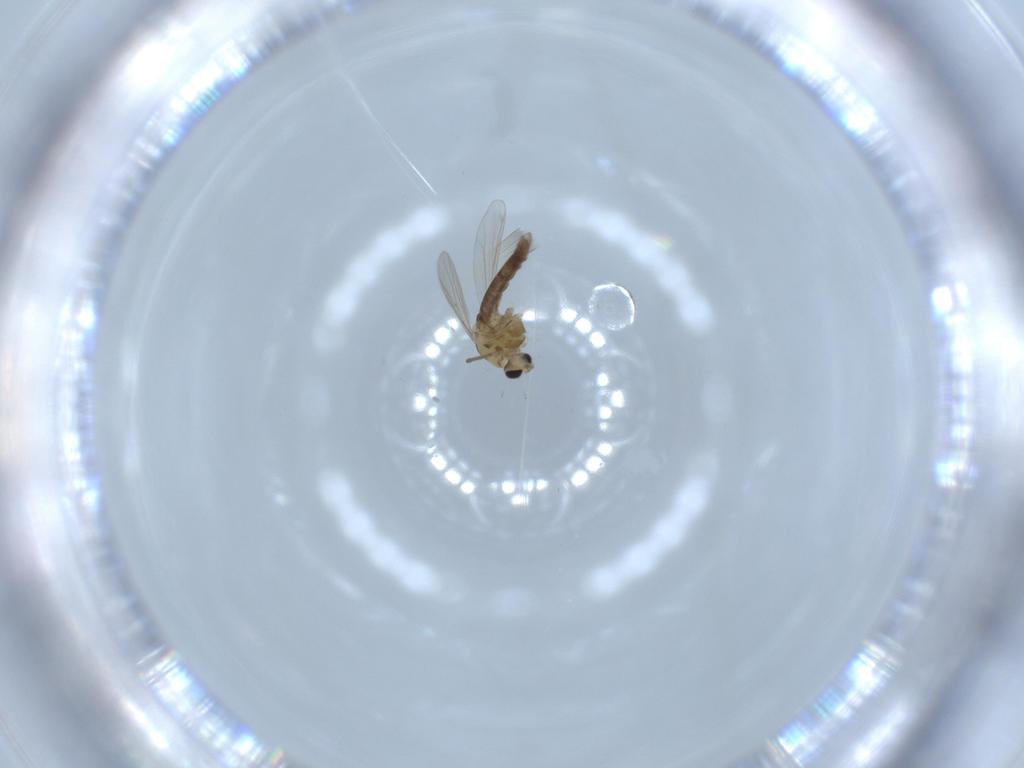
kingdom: Animalia
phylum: Arthropoda
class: Insecta
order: Diptera
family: Chironomidae
